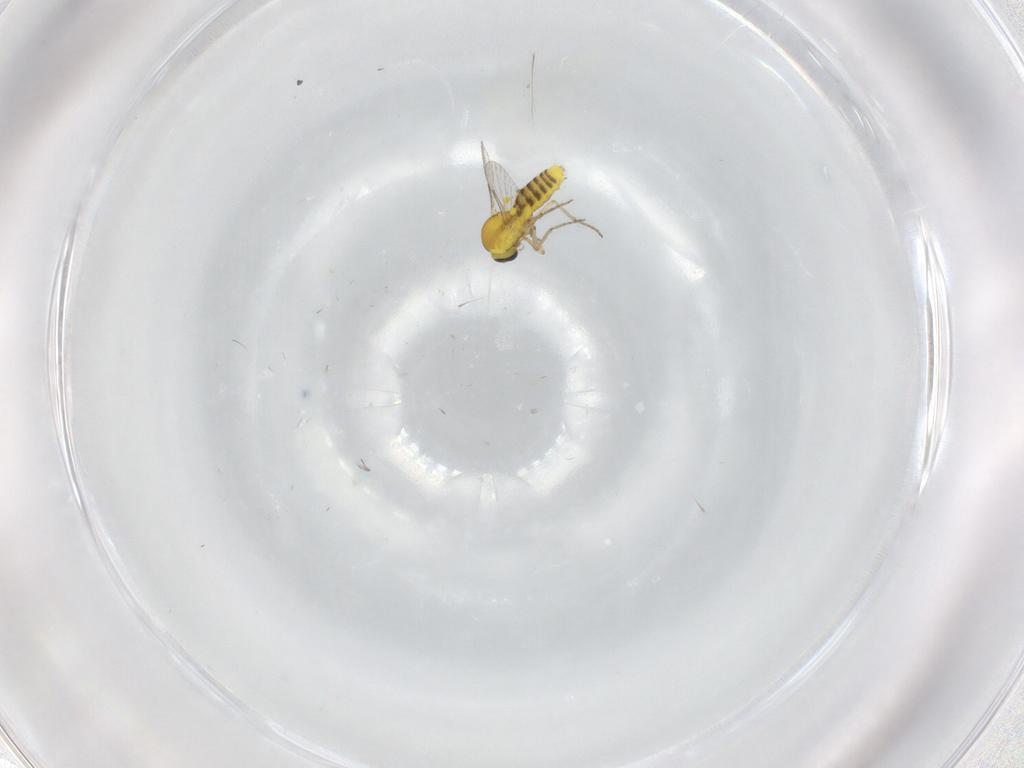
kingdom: Animalia
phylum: Arthropoda
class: Insecta
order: Diptera
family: Ceratopogonidae
